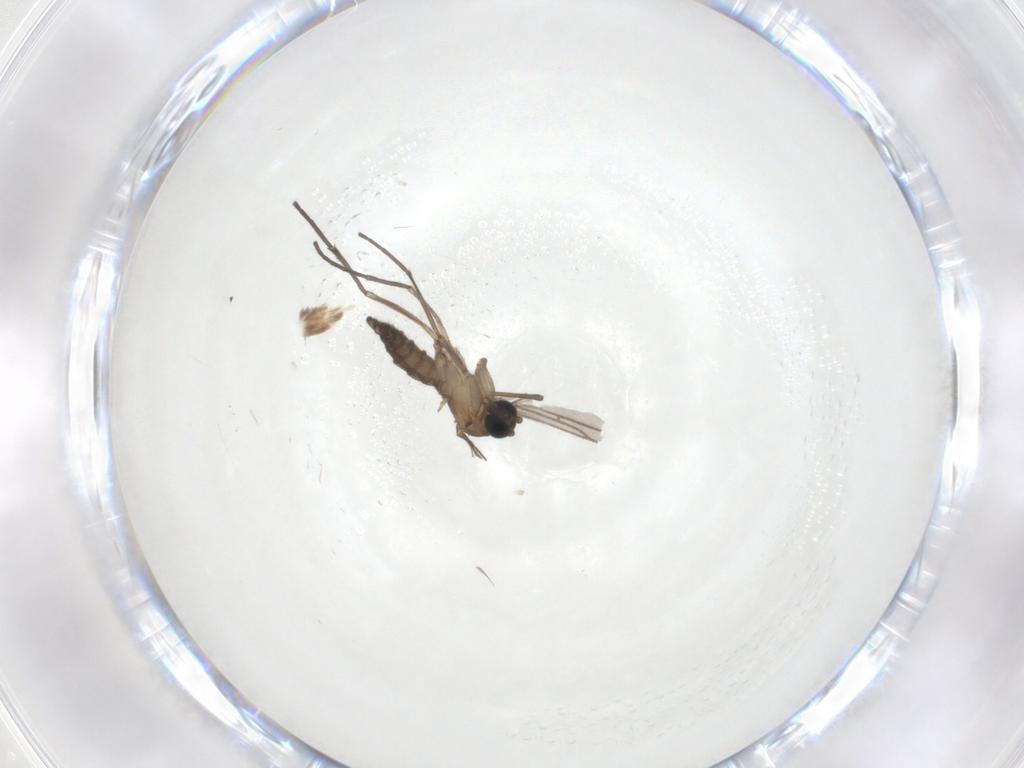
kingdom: Animalia
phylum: Arthropoda
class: Insecta
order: Diptera
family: Sciaridae
